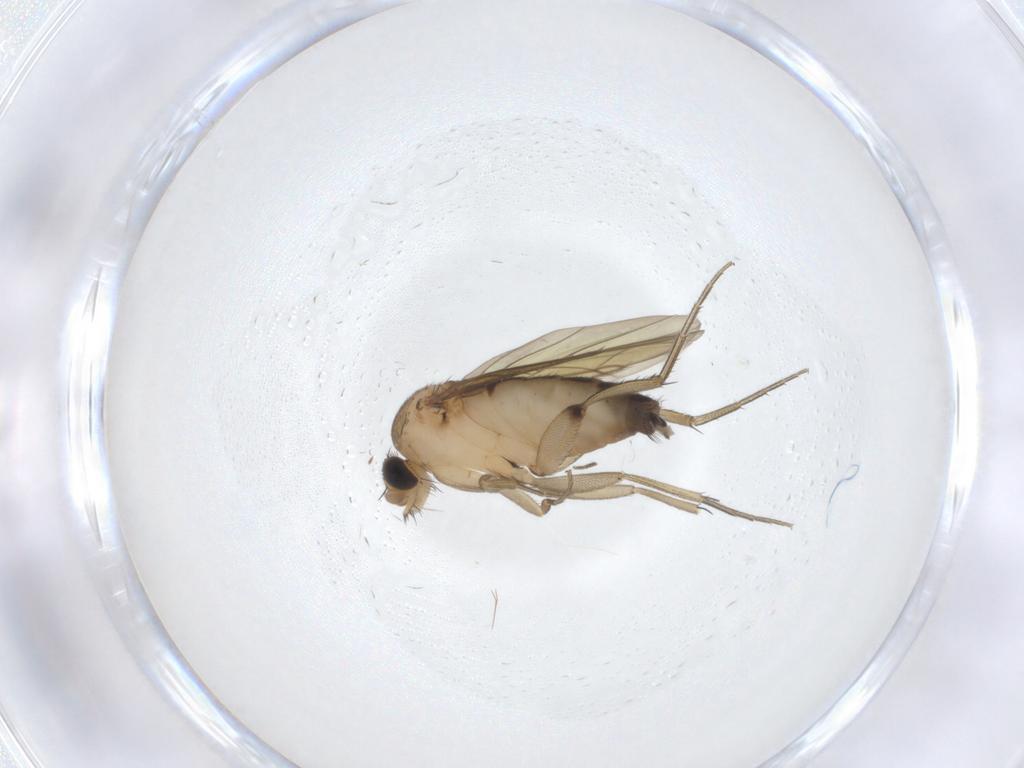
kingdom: Animalia
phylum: Arthropoda
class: Insecta
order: Diptera
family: Phoridae
